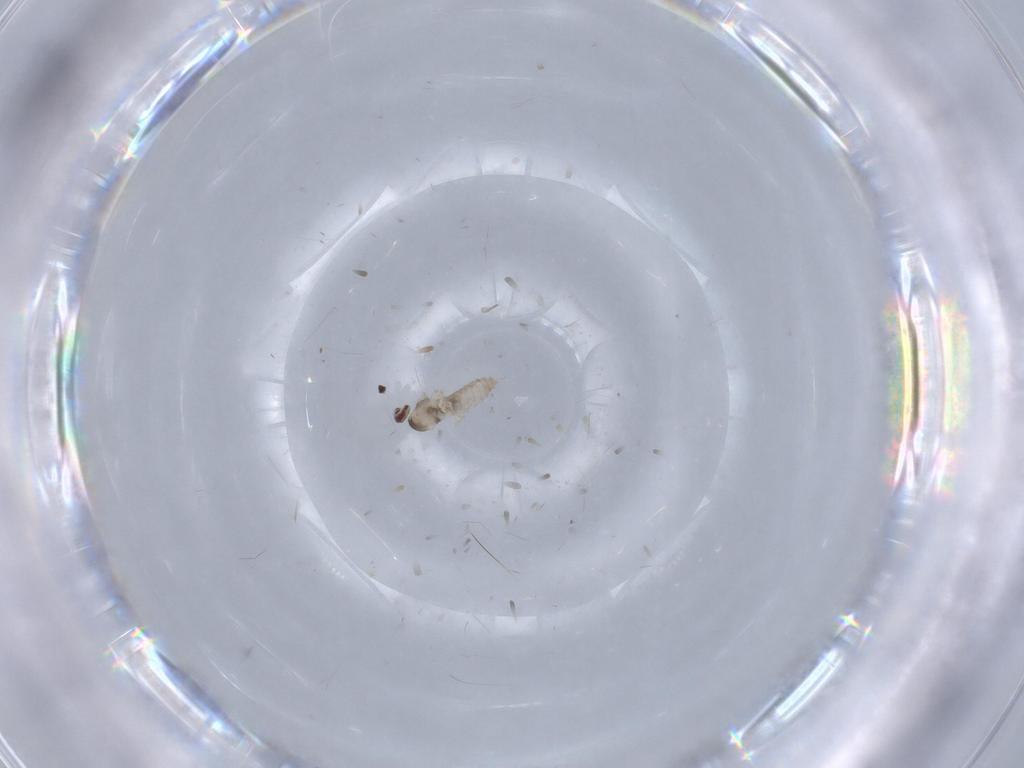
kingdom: Animalia
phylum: Arthropoda
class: Insecta
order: Diptera
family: Cecidomyiidae
